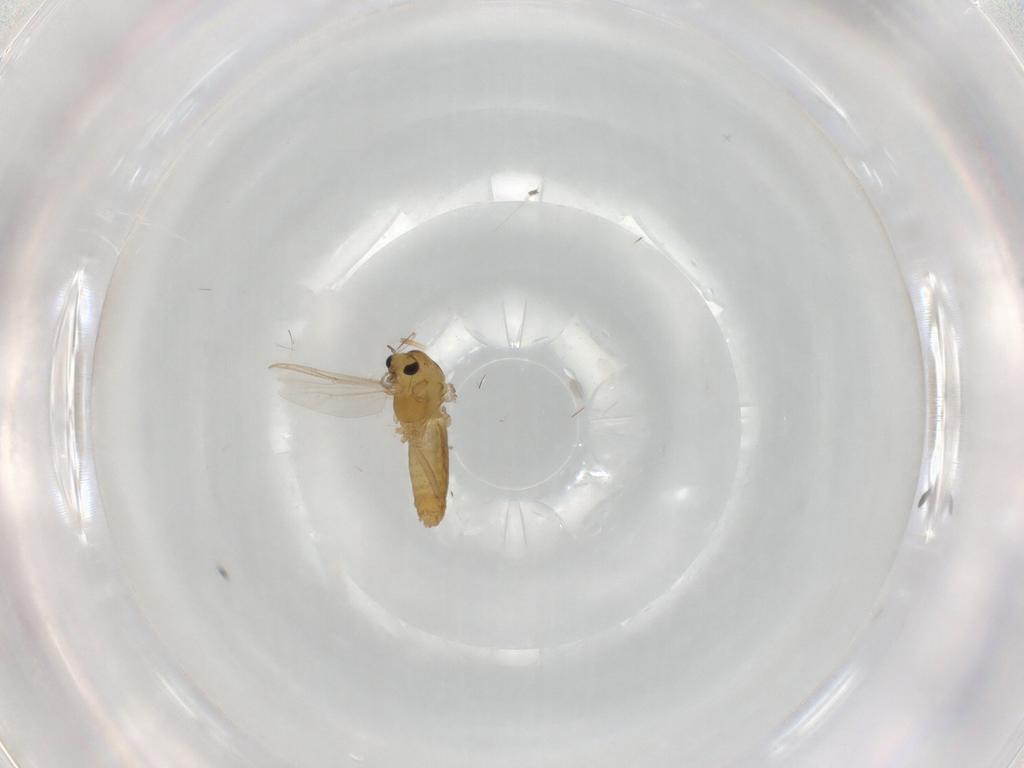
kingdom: Animalia
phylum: Arthropoda
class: Insecta
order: Diptera
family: Chironomidae
